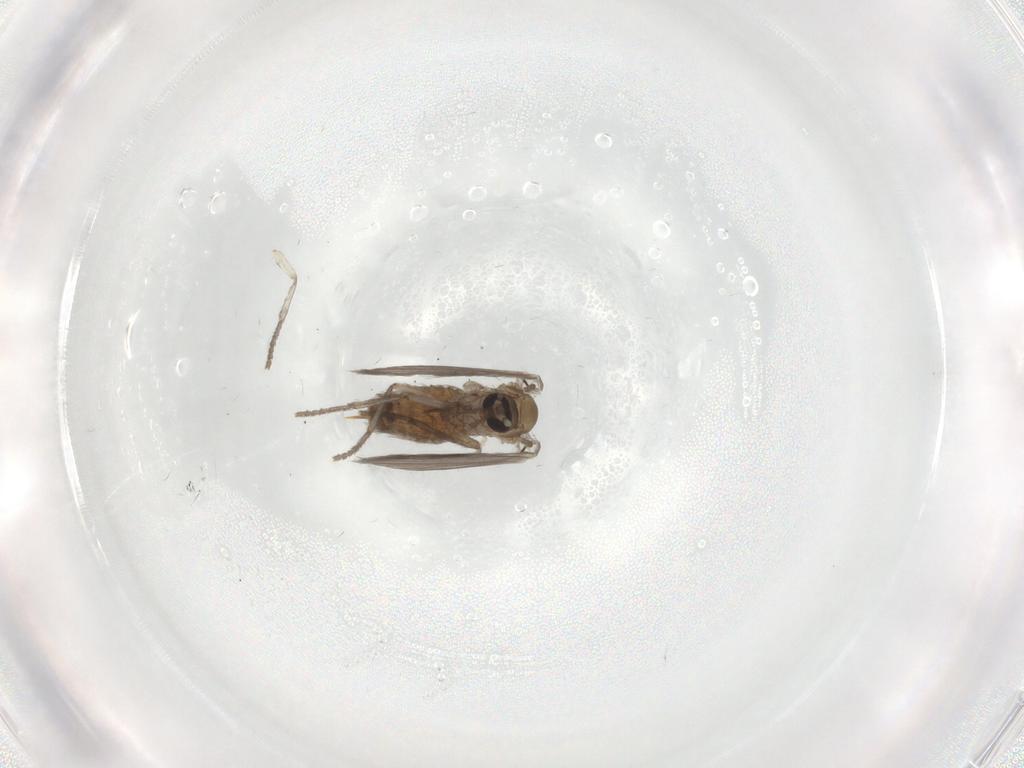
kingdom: Animalia
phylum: Arthropoda
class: Insecta
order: Diptera
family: Psychodidae
